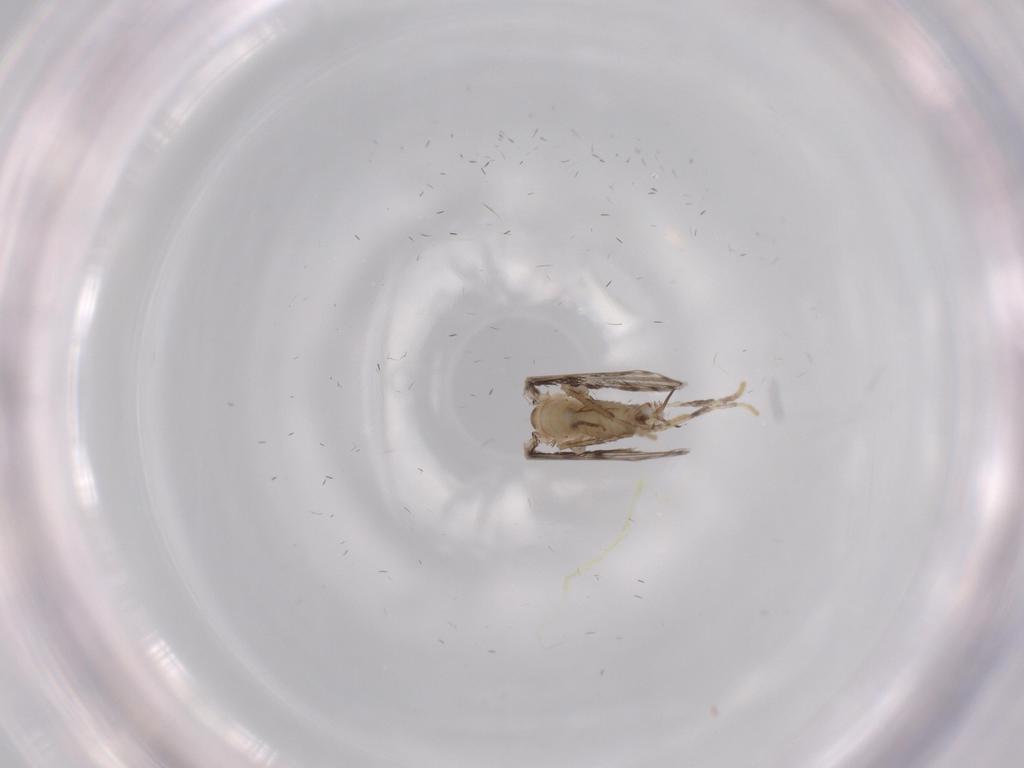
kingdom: Animalia
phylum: Arthropoda
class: Insecta
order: Diptera
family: Psychodidae
